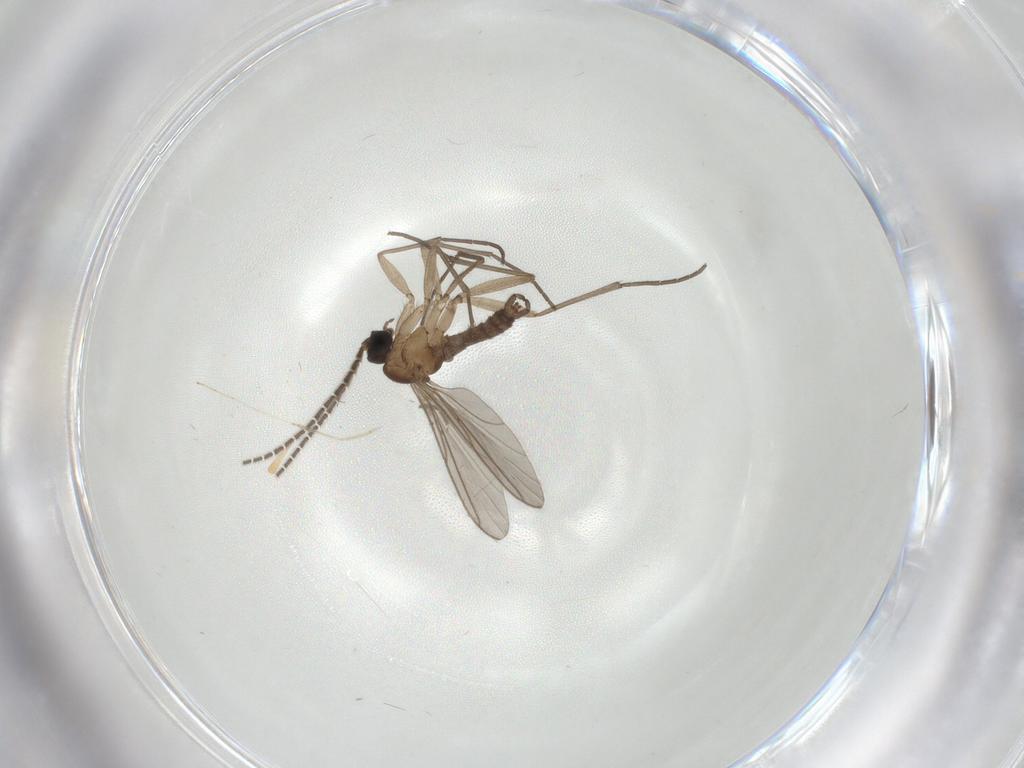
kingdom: Animalia
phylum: Arthropoda
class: Insecta
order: Diptera
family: Sciaridae
